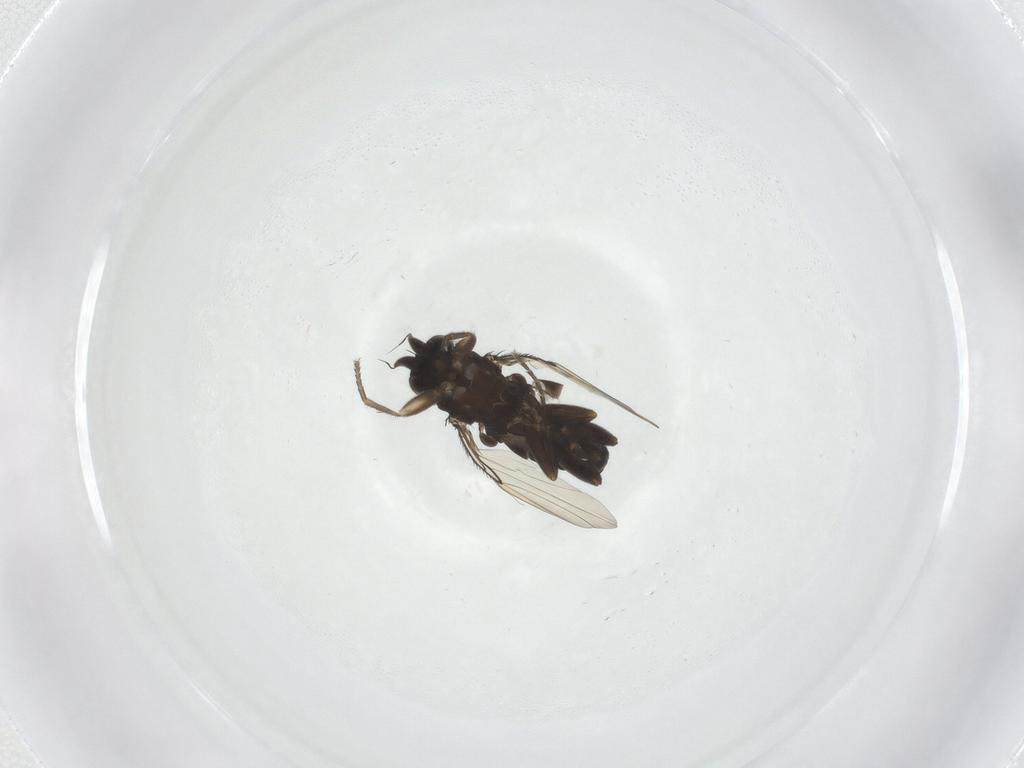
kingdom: Animalia
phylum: Arthropoda
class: Insecta
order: Diptera
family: Phoridae
